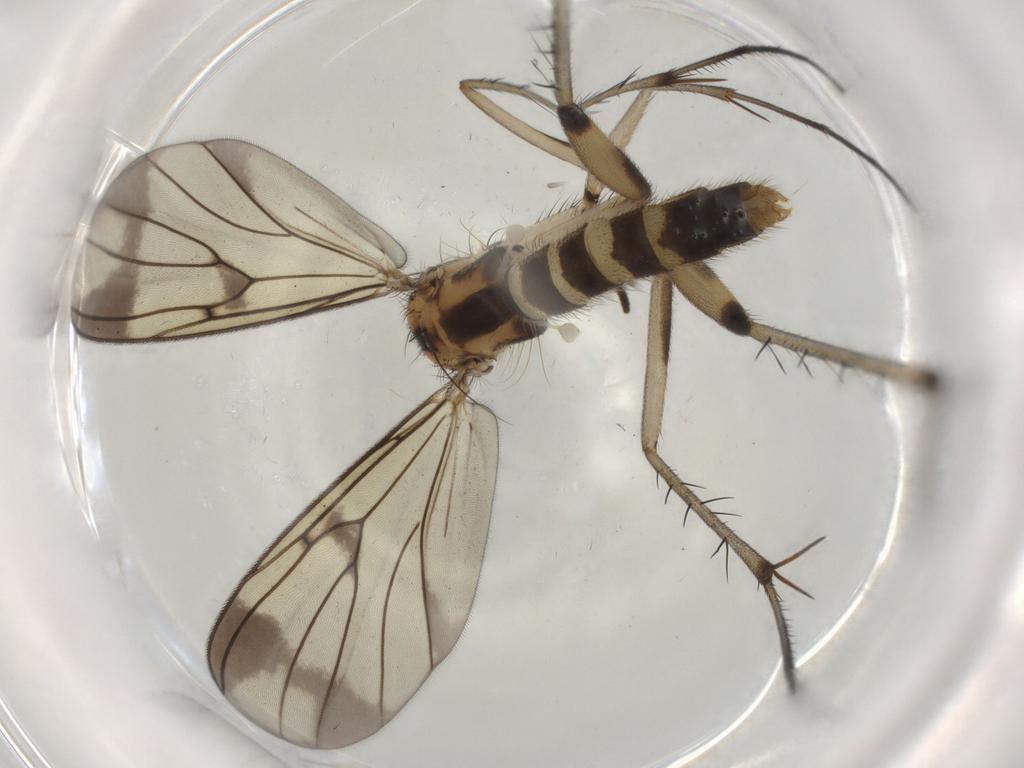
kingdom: Animalia
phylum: Arthropoda
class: Insecta
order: Diptera
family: Mycetophilidae
